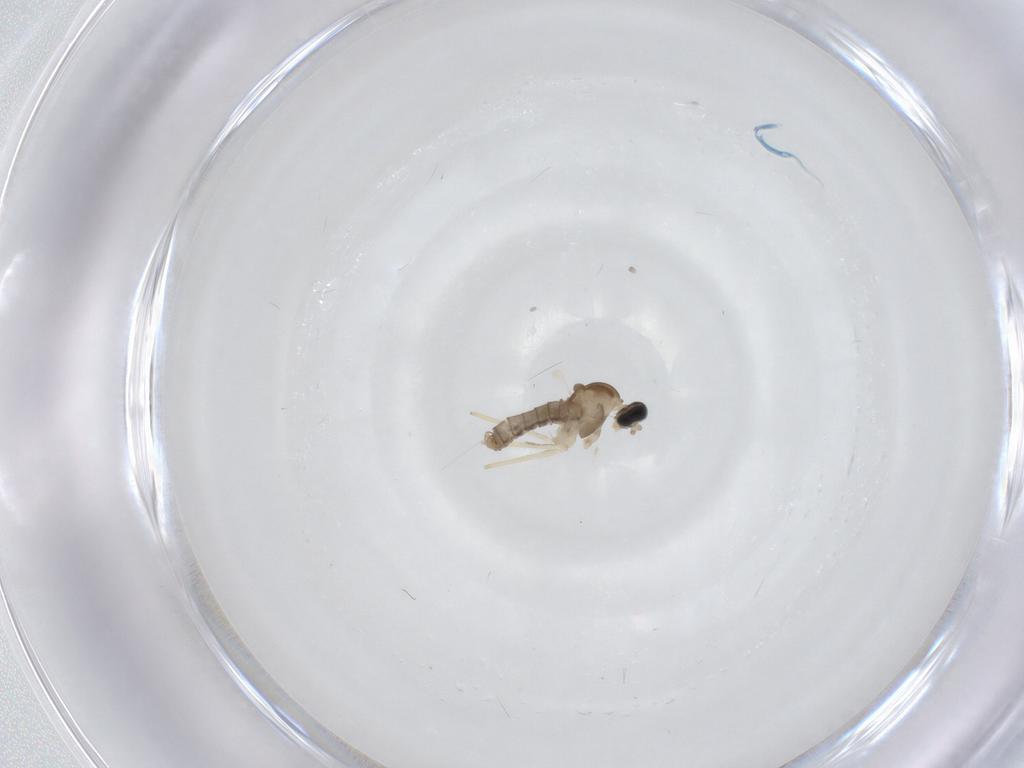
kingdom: Animalia
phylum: Arthropoda
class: Insecta
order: Diptera
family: Cecidomyiidae
